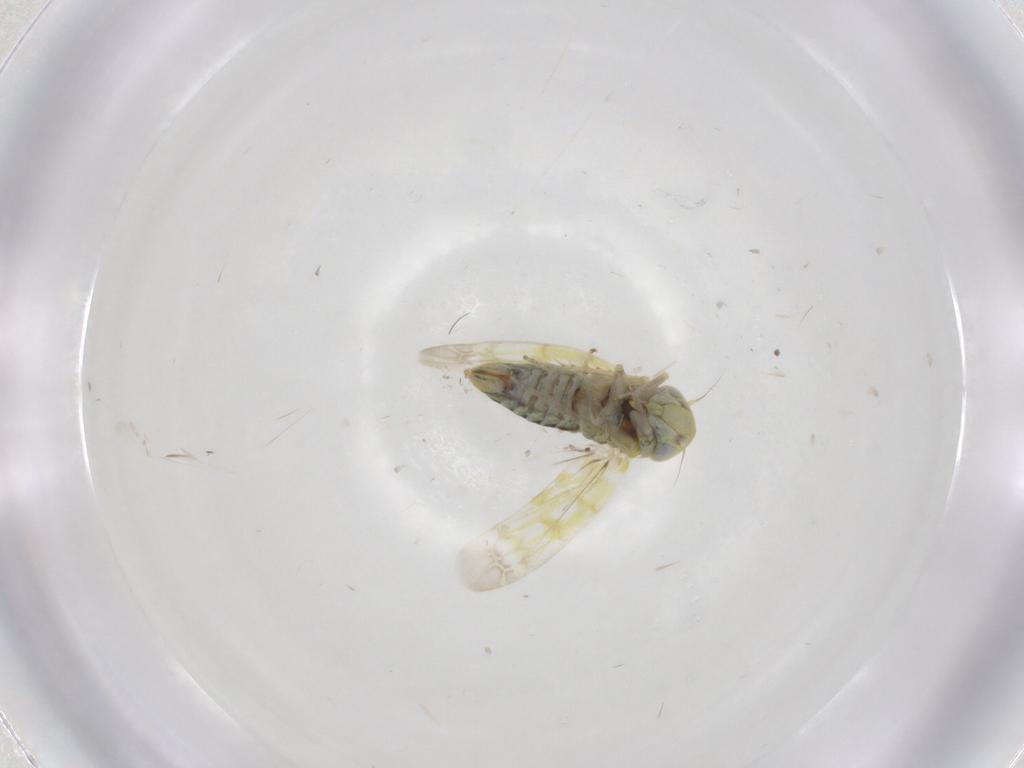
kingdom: Animalia
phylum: Arthropoda
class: Insecta
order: Hemiptera
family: Cicadellidae
